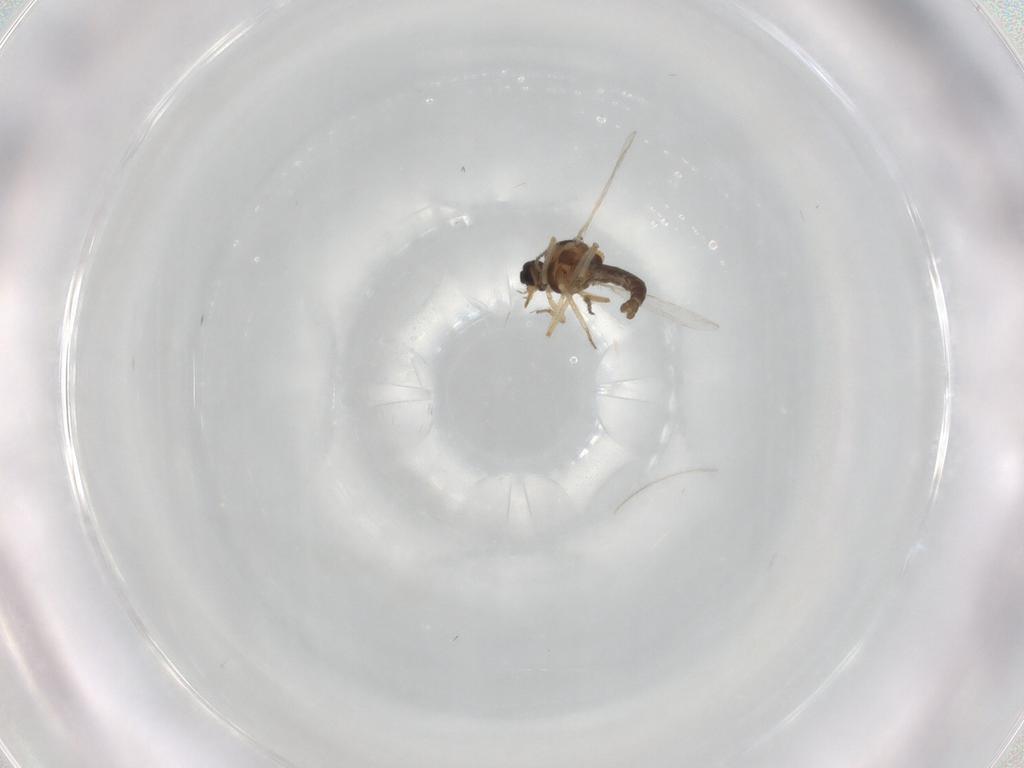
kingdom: Animalia
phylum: Arthropoda
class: Insecta
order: Diptera
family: Ceratopogonidae
